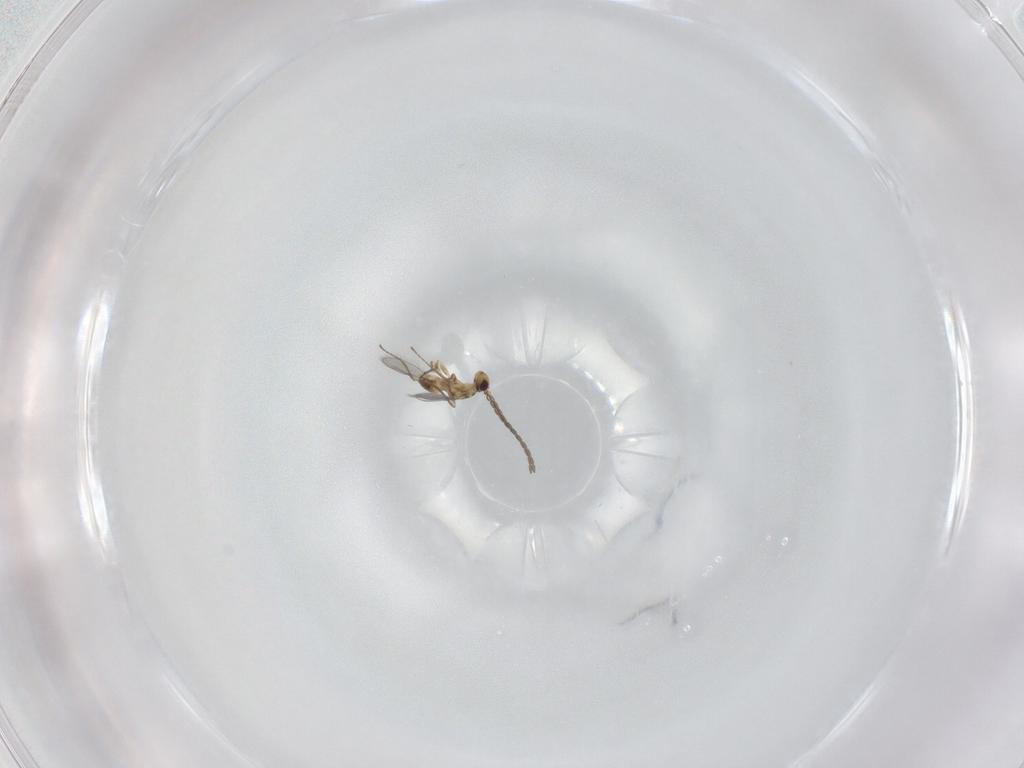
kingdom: Animalia
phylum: Arthropoda
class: Insecta
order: Hymenoptera
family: Mymaridae
